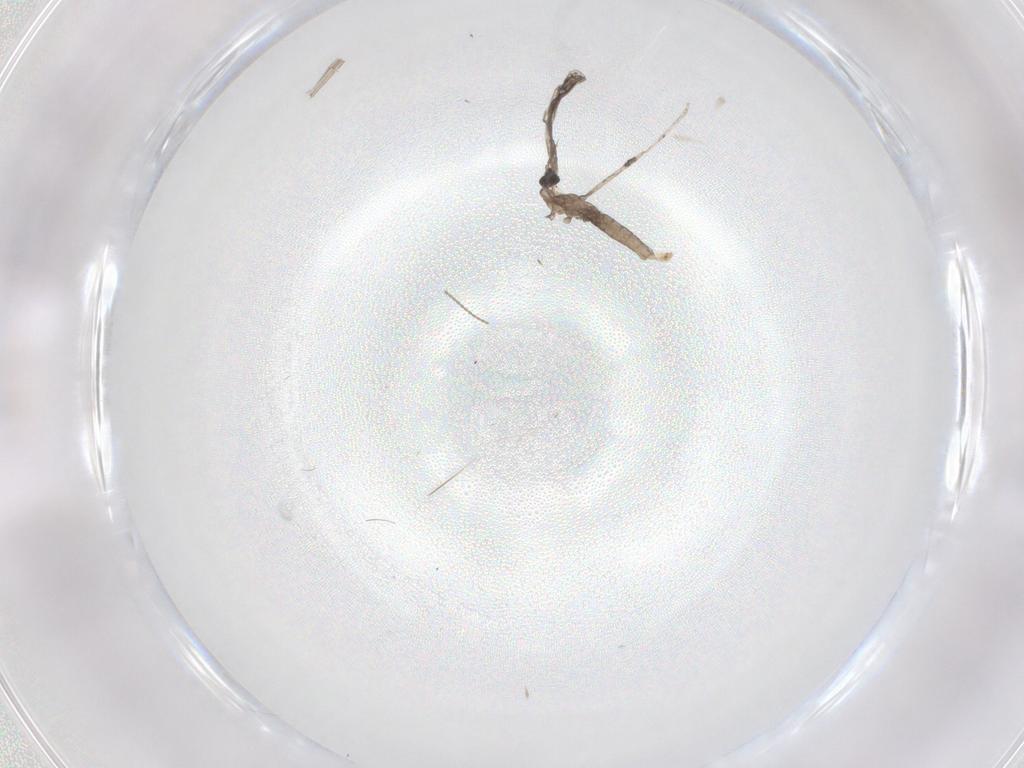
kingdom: Animalia
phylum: Arthropoda
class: Insecta
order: Diptera
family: Cecidomyiidae
